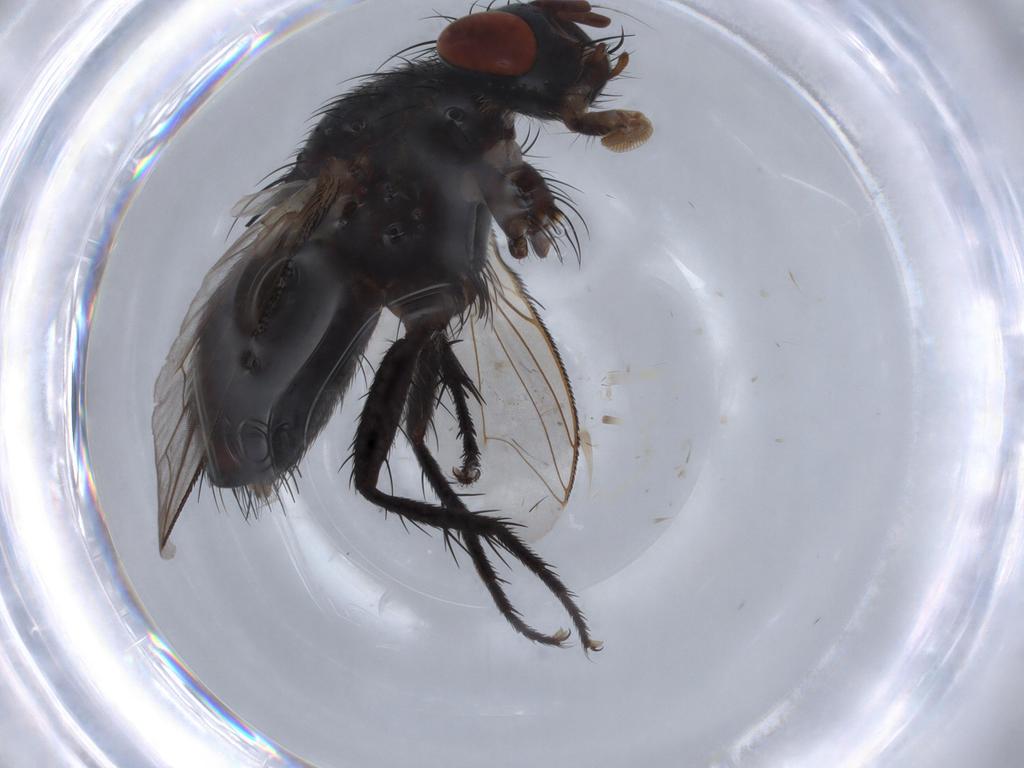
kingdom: Animalia
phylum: Arthropoda
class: Insecta
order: Diptera
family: Sarcophagidae
